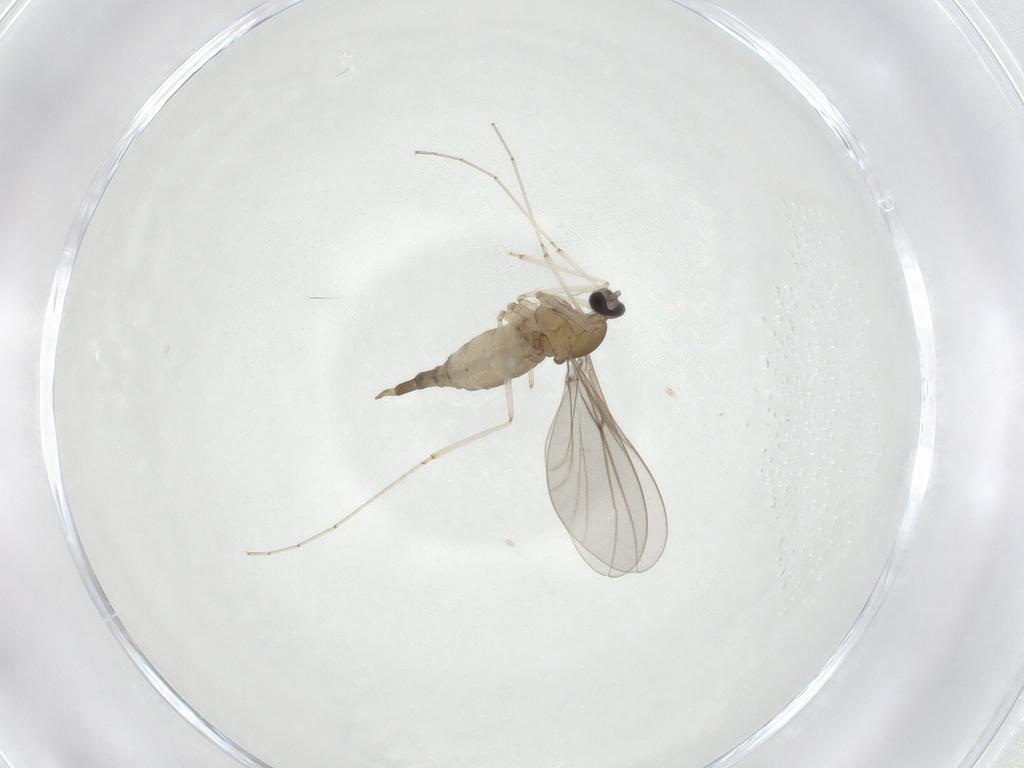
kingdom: Animalia
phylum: Arthropoda
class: Insecta
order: Diptera
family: Cecidomyiidae
